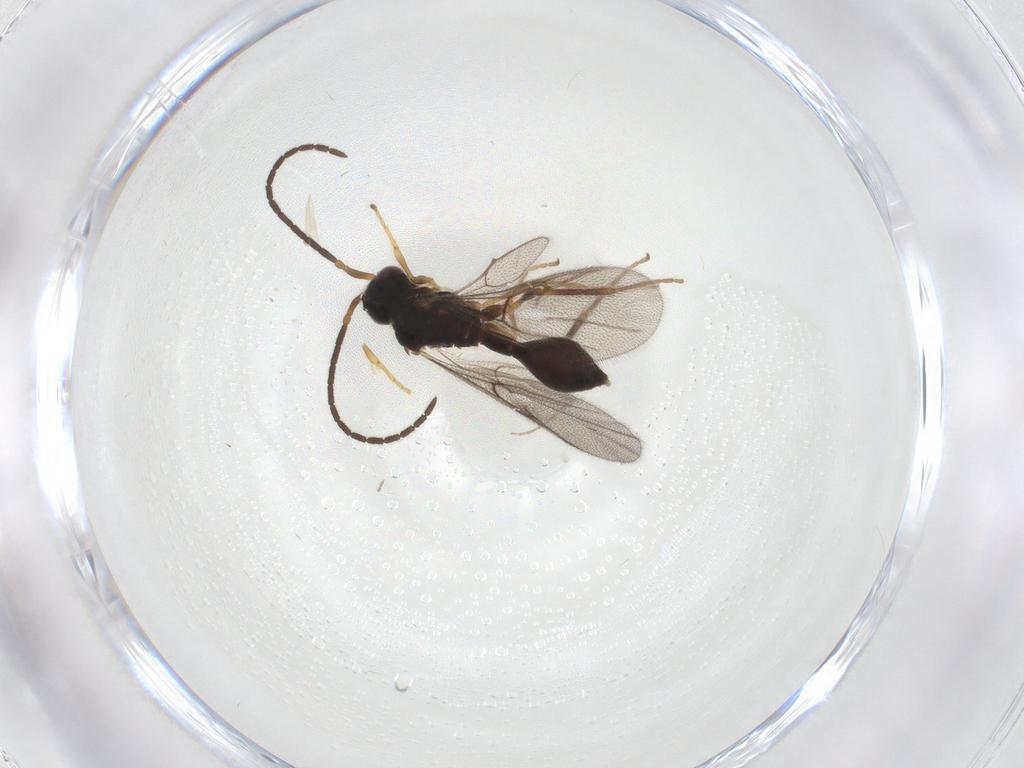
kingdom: Animalia
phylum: Arthropoda
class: Insecta
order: Hymenoptera
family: Diapriidae
